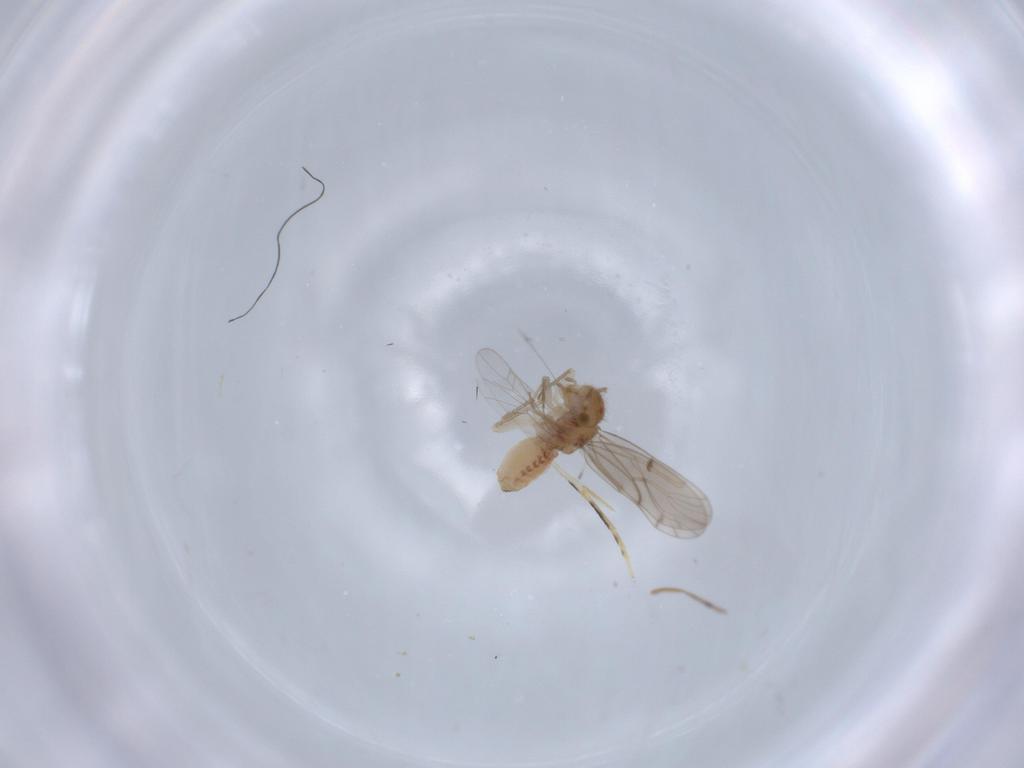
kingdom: Animalia
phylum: Arthropoda
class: Insecta
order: Psocodea
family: Ectopsocidae
